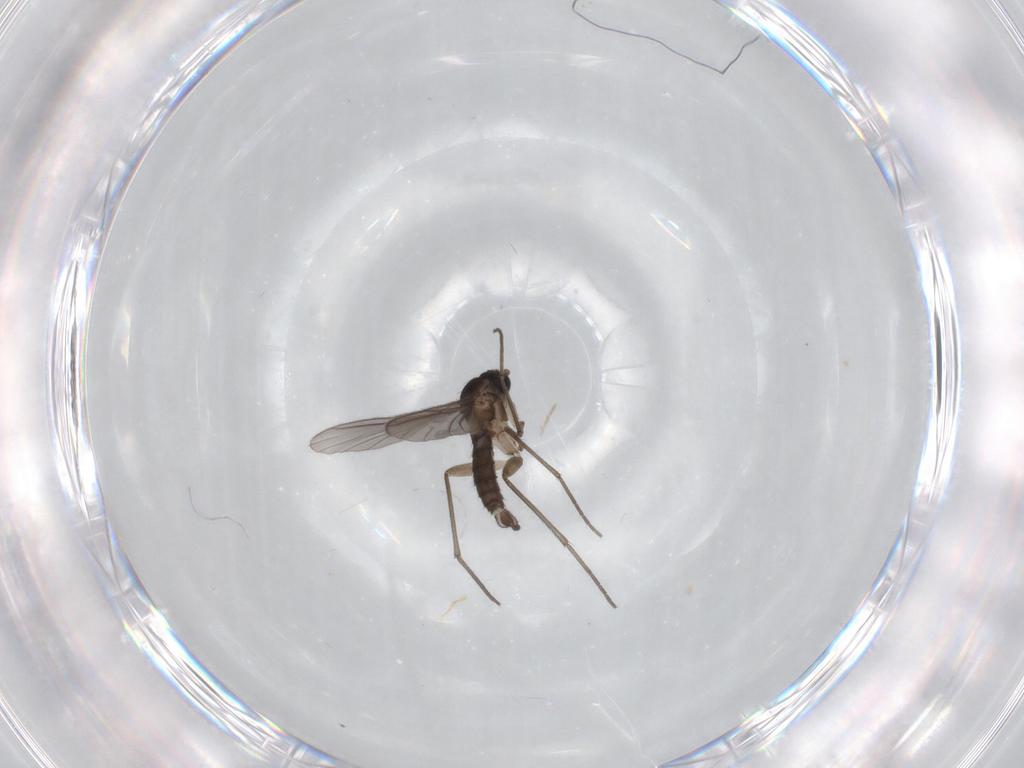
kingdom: Animalia
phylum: Arthropoda
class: Insecta
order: Diptera
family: Sciaridae
